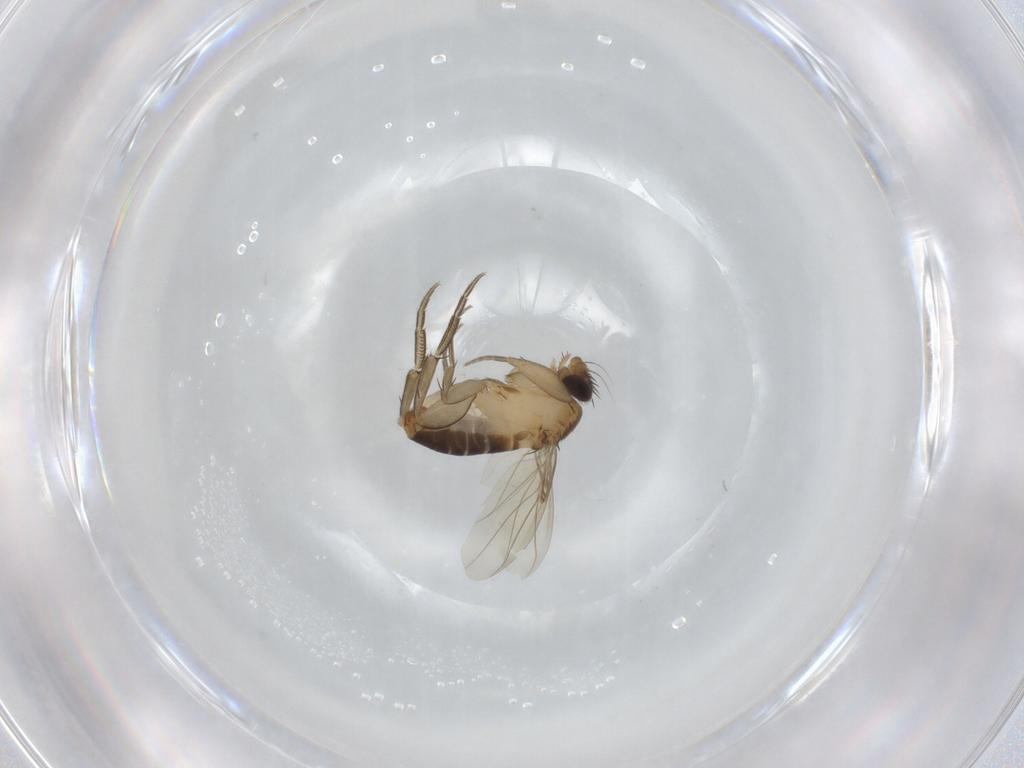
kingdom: Animalia
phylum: Arthropoda
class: Insecta
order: Diptera
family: Phoridae
